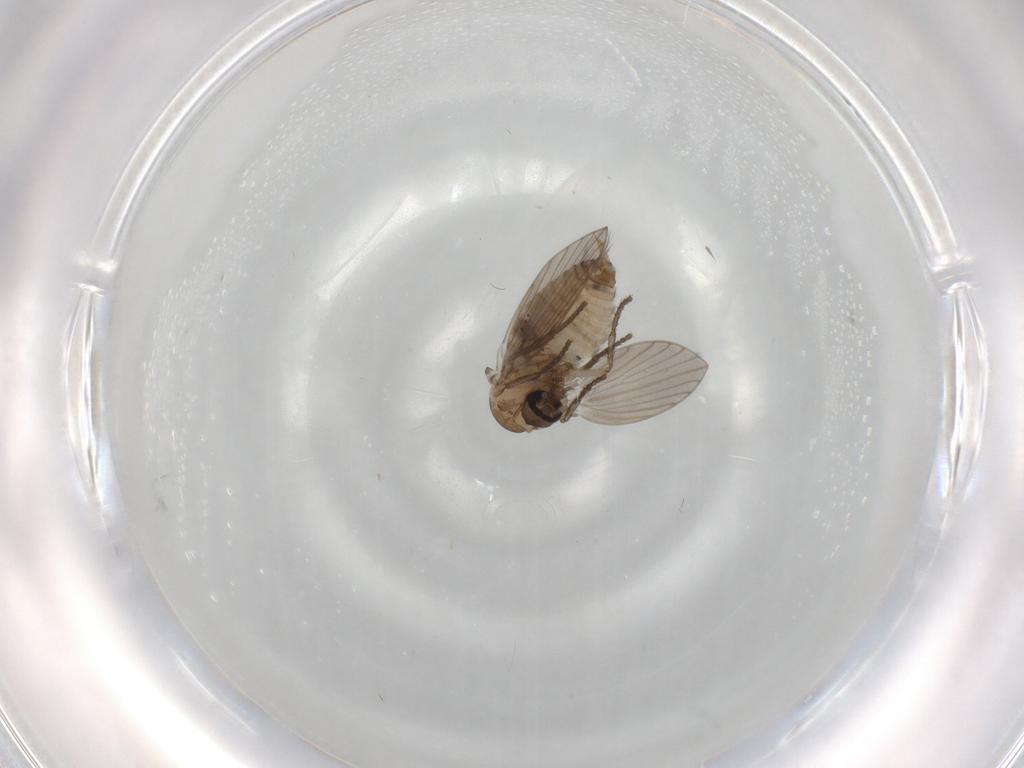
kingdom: Animalia
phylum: Arthropoda
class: Insecta
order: Diptera
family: Psychodidae
